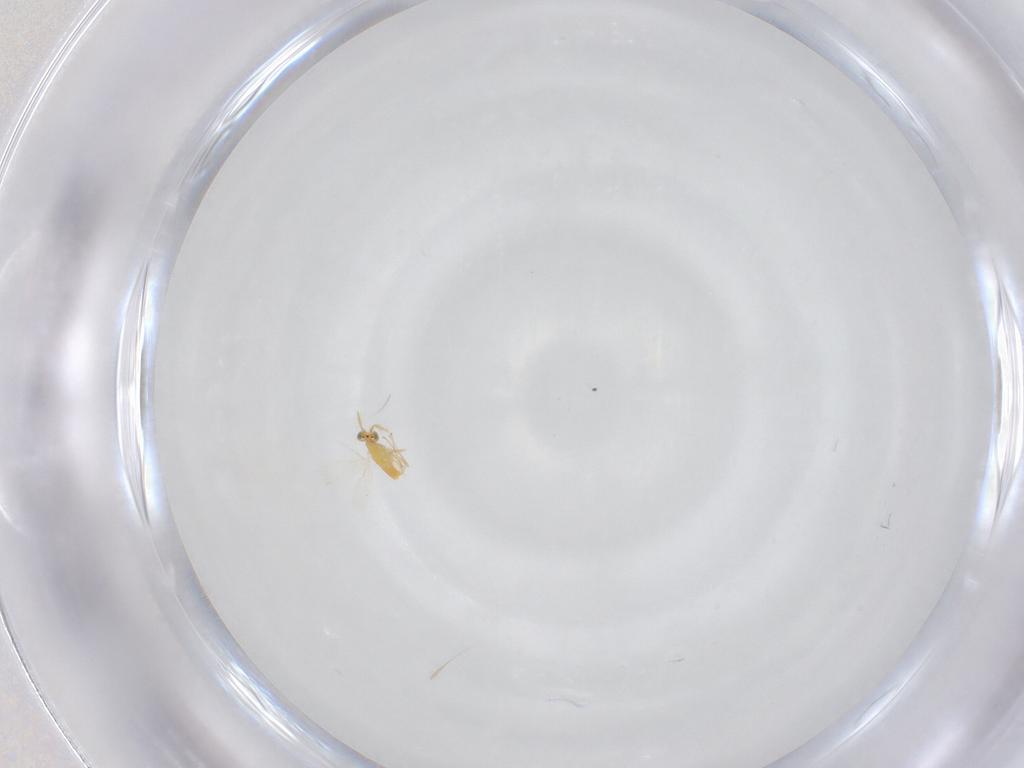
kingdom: Animalia
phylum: Arthropoda
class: Insecta
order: Hymenoptera
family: Aphelinidae
